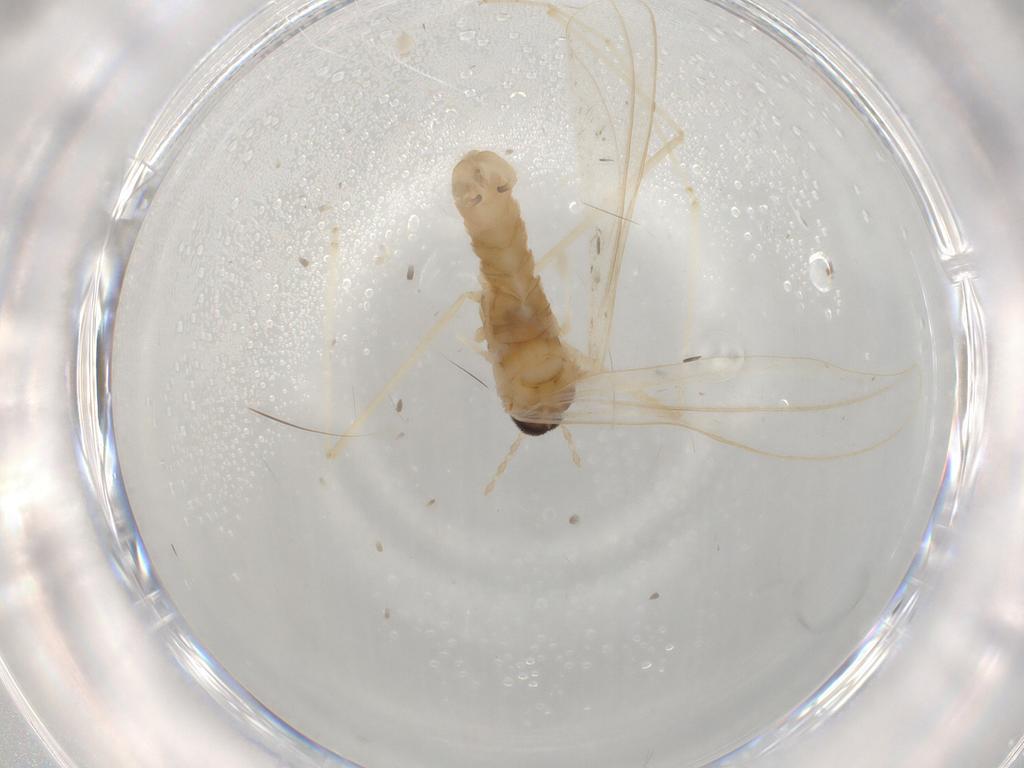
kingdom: Animalia
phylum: Arthropoda
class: Insecta
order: Diptera
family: Cecidomyiidae
